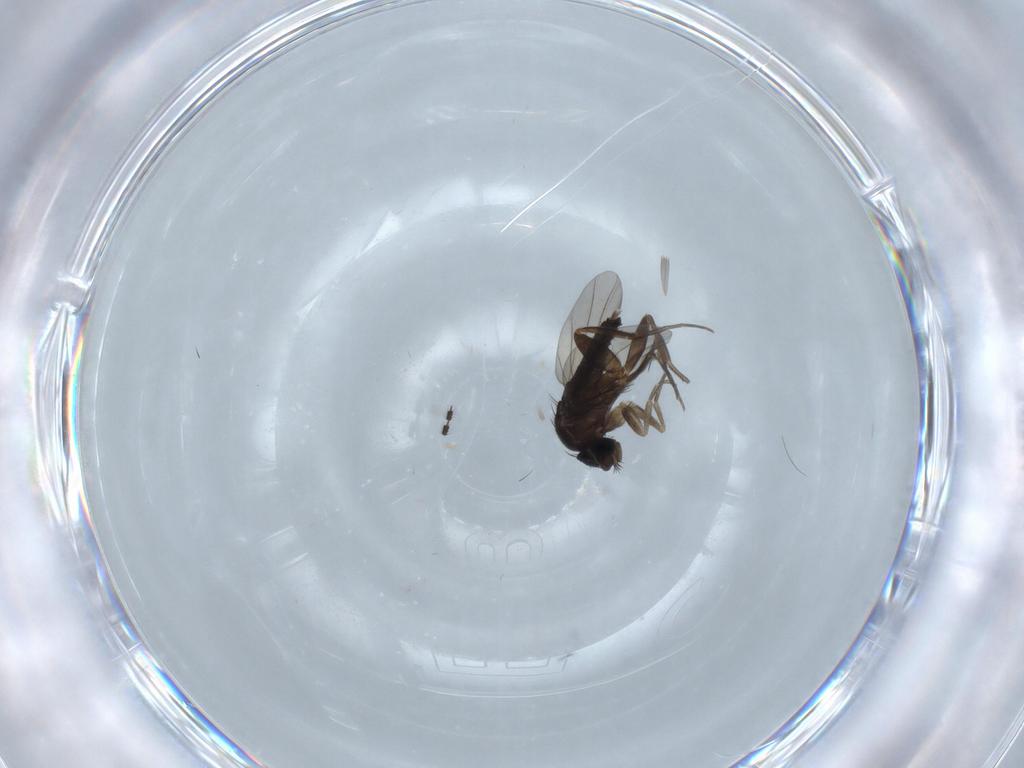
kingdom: Animalia
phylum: Arthropoda
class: Insecta
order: Diptera
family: Phoridae
